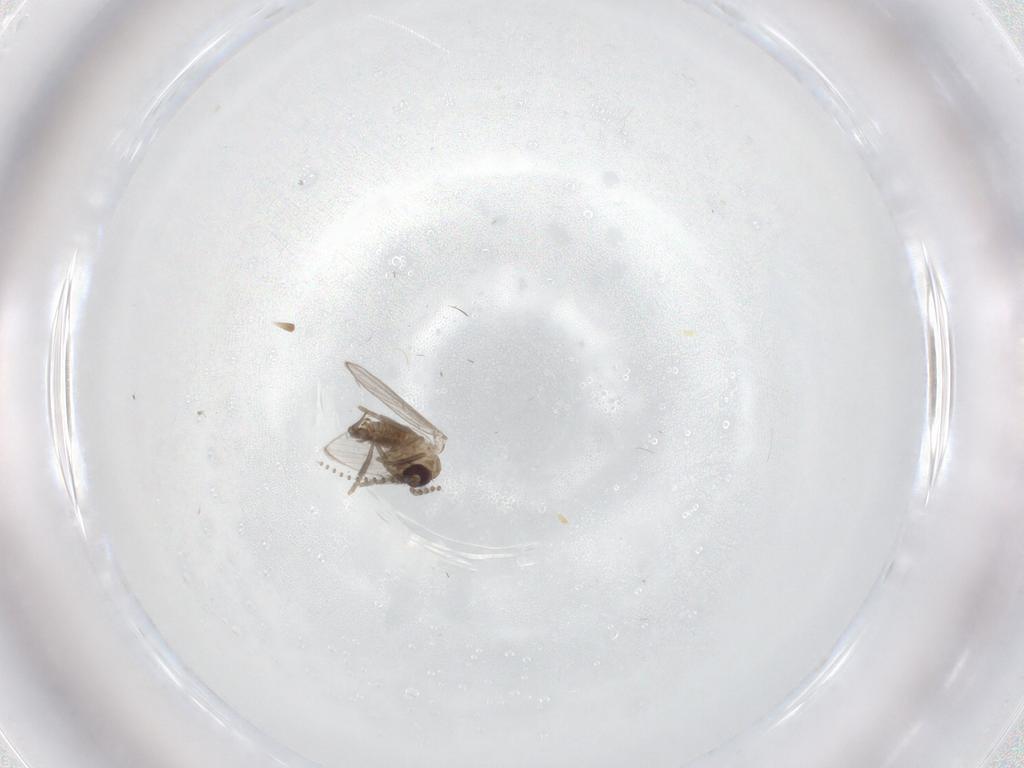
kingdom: Animalia
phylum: Arthropoda
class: Insecta
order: Diptera
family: Psychodidae
